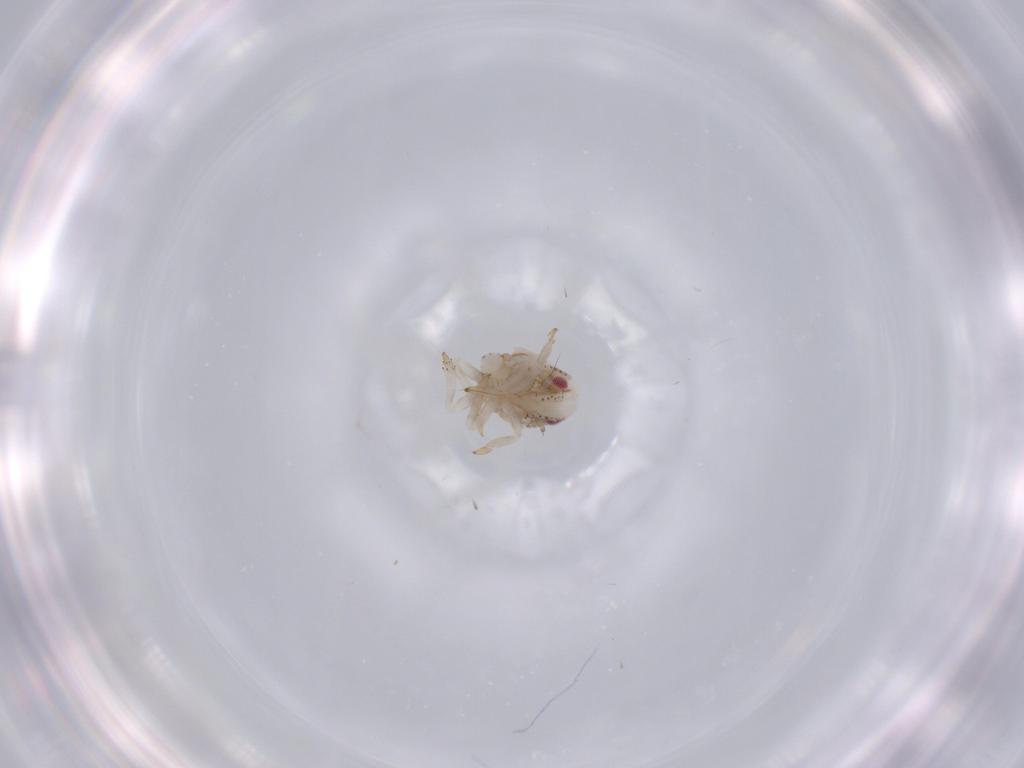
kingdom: Animalia
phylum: Arthropoda
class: Insecta
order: Hemiptera
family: Acanaloniidae
